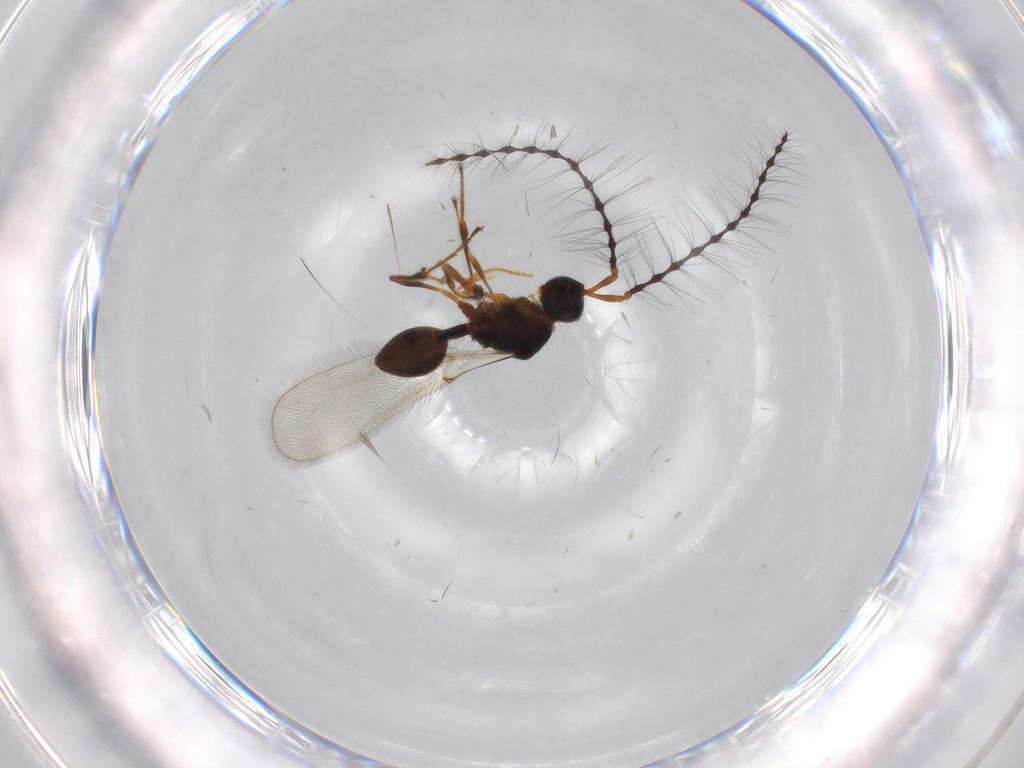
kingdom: Animalia
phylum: Arthropoda
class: Insecta
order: Hymenoptera
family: Diapriidae
